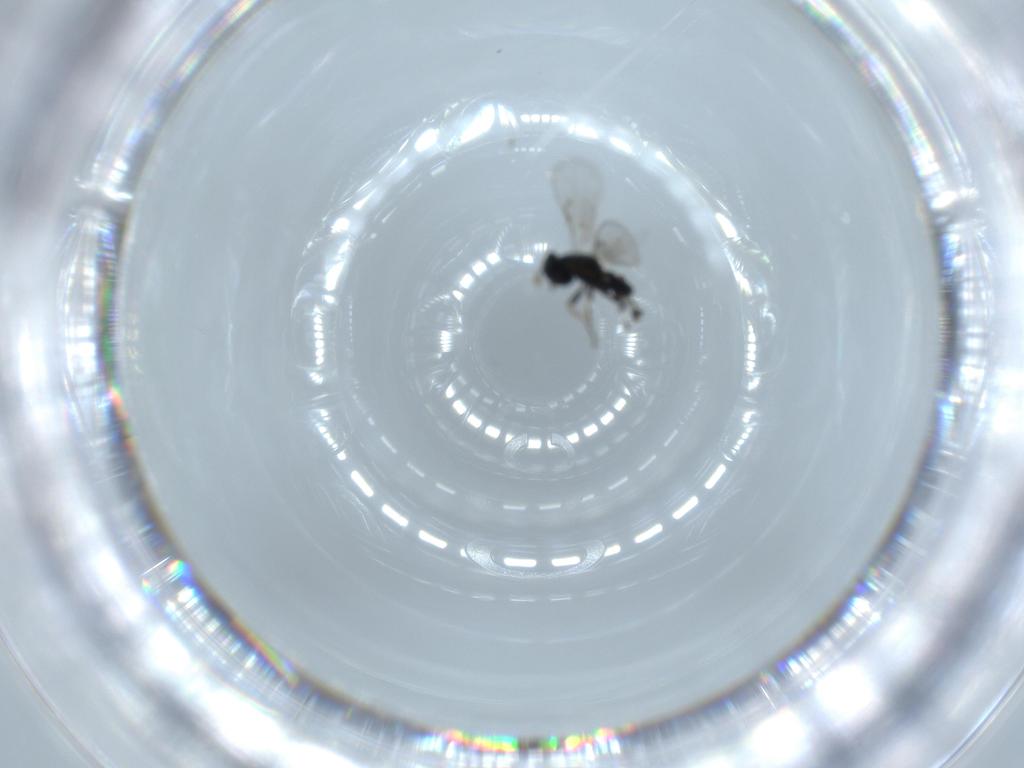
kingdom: Animalia
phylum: Arthropoda
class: Insecta
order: Hymenoptera
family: Eulophidae
